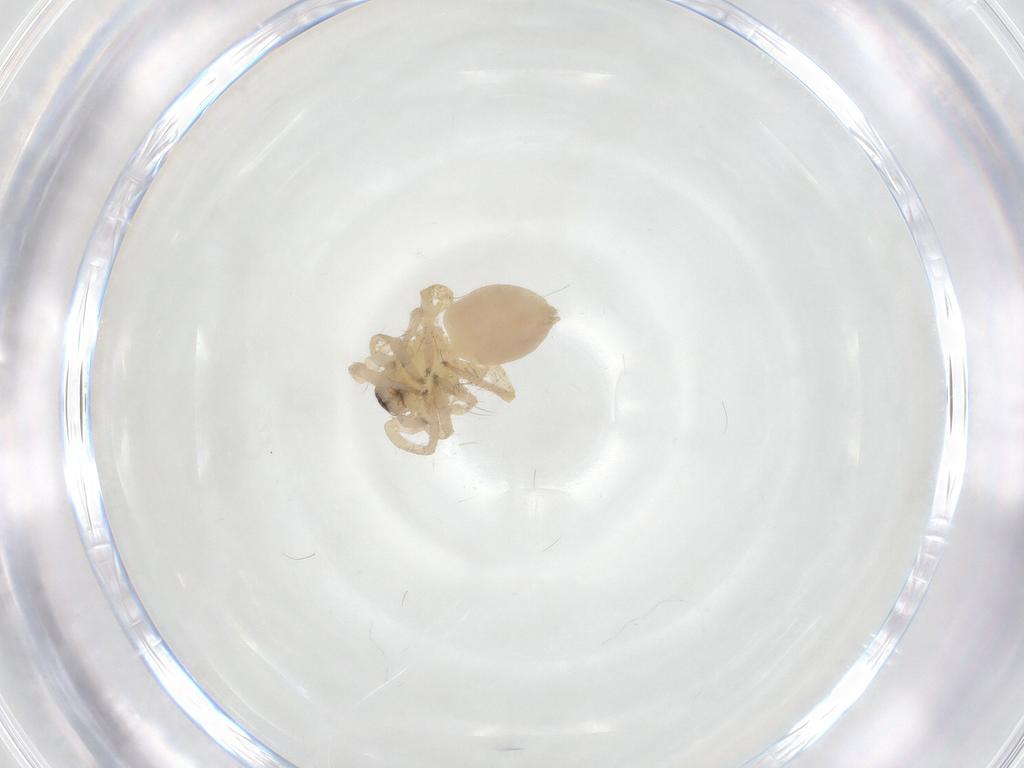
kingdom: Animalia
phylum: Arthropoda
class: Arachnida
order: Araneae
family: Anyphaenidae
